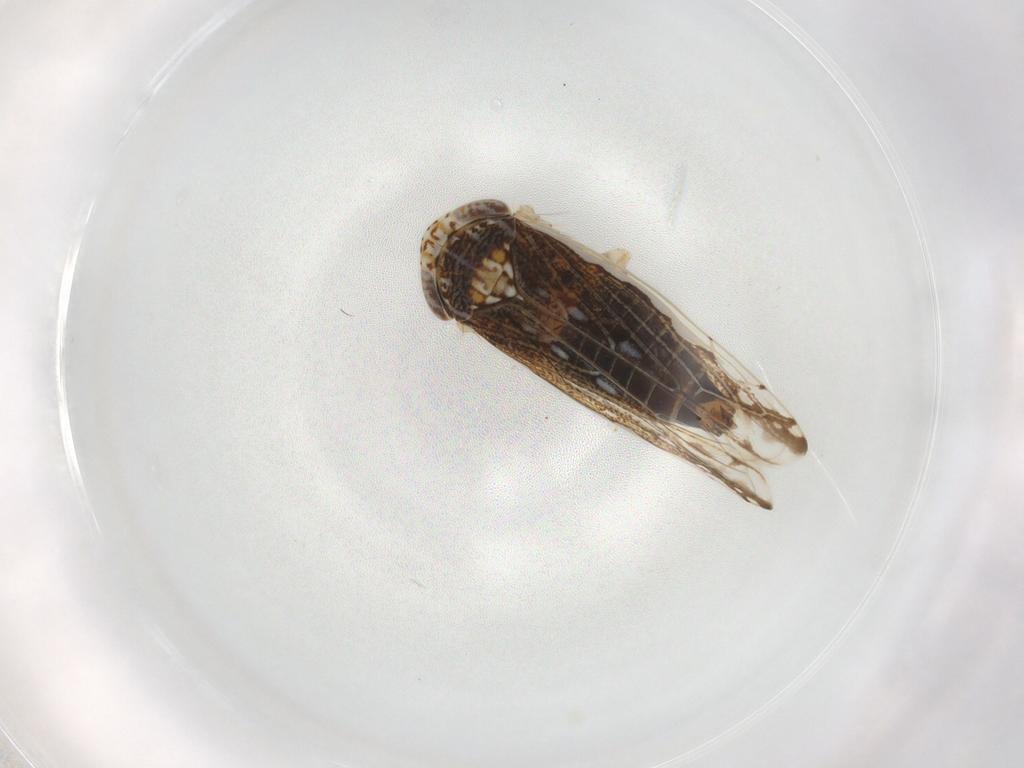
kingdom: Animalia
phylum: Arthropoda
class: Insecta
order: Hemiptera
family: Cicadellidae
